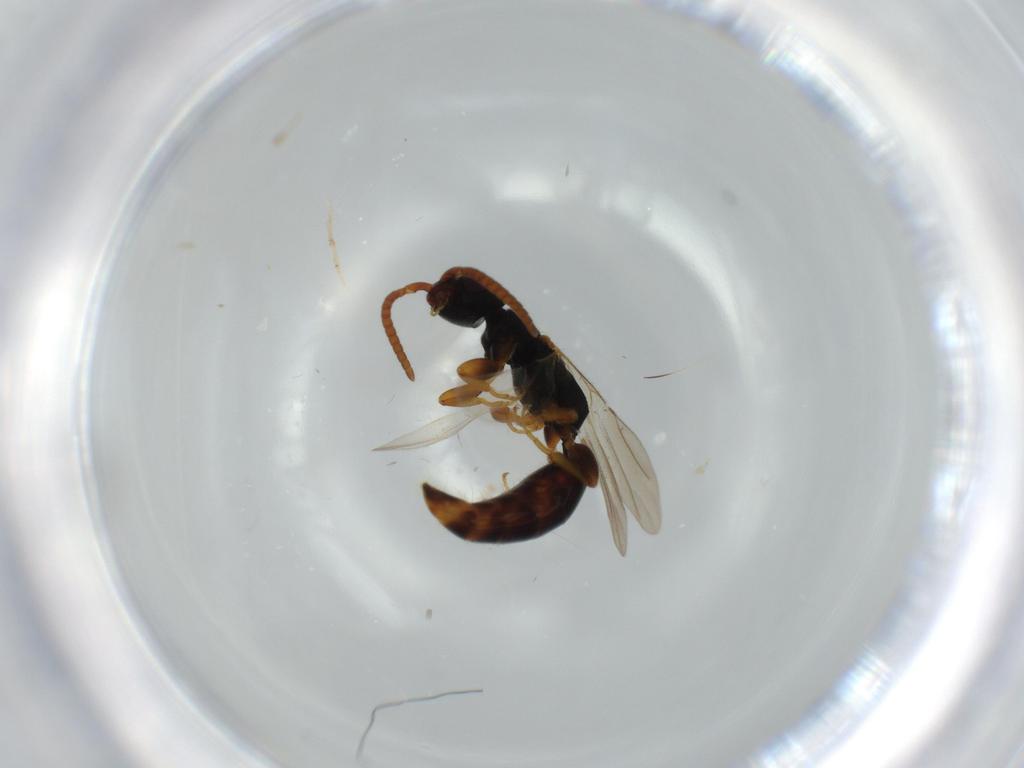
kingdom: Animalia
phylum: Arthropoda
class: Insecta
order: Hymenoptera
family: Bethylidae
